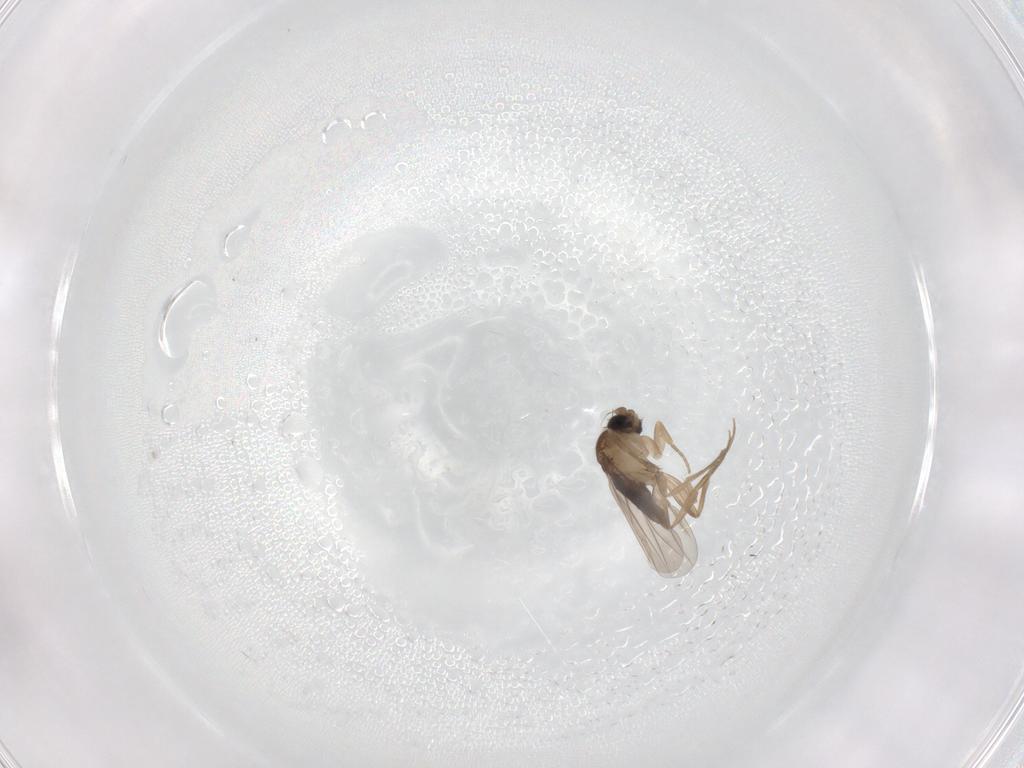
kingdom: Animalia
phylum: Arthropoda
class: Insecta
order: Diptera
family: Phoridae
